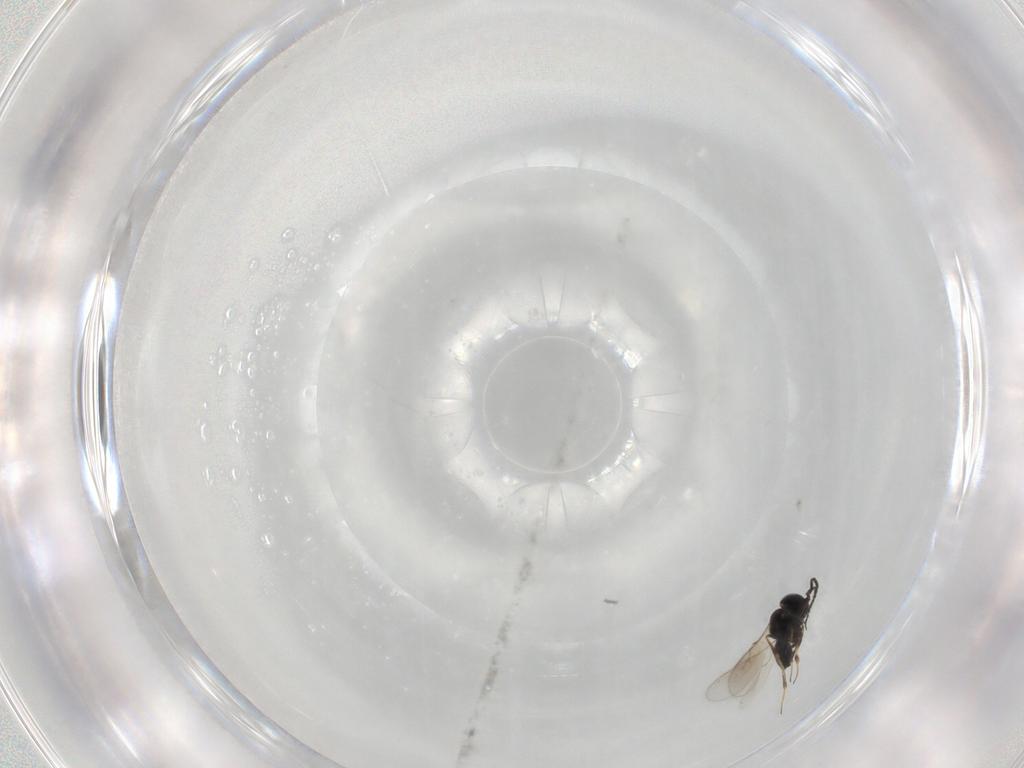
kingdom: Animalia
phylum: Arthropoda
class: Insecta
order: Hymenoptera
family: Scelionidae
